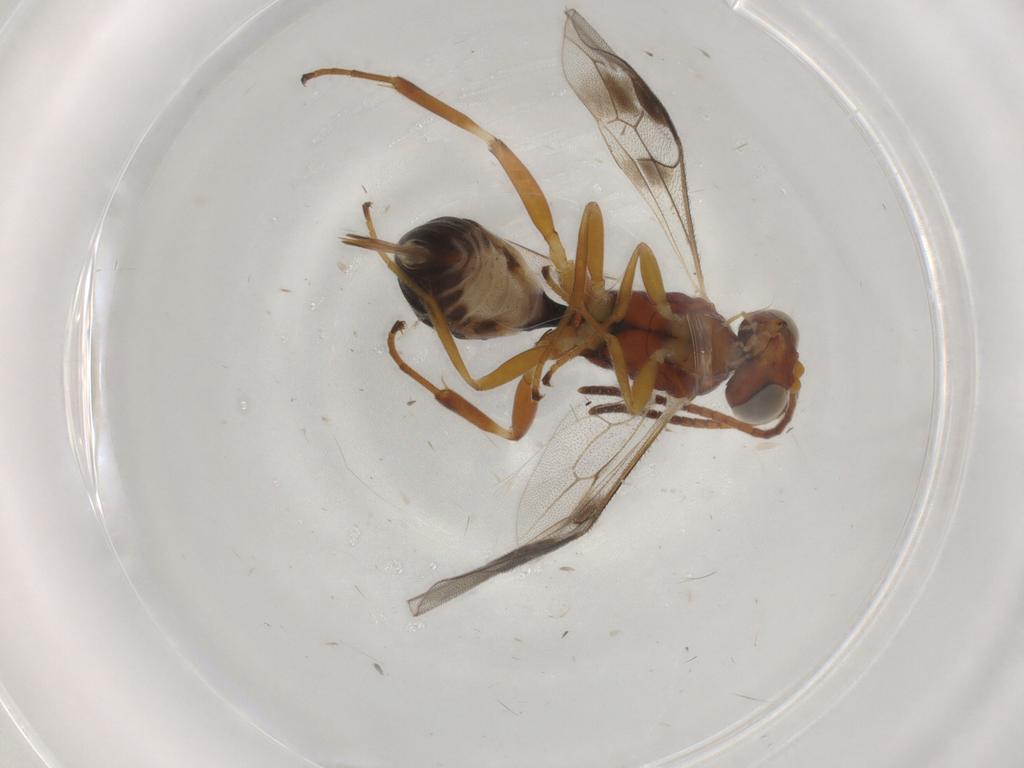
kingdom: Animalia
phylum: Arthropoda
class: Insecta
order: Hymenoptera
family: Ichneumonidae
